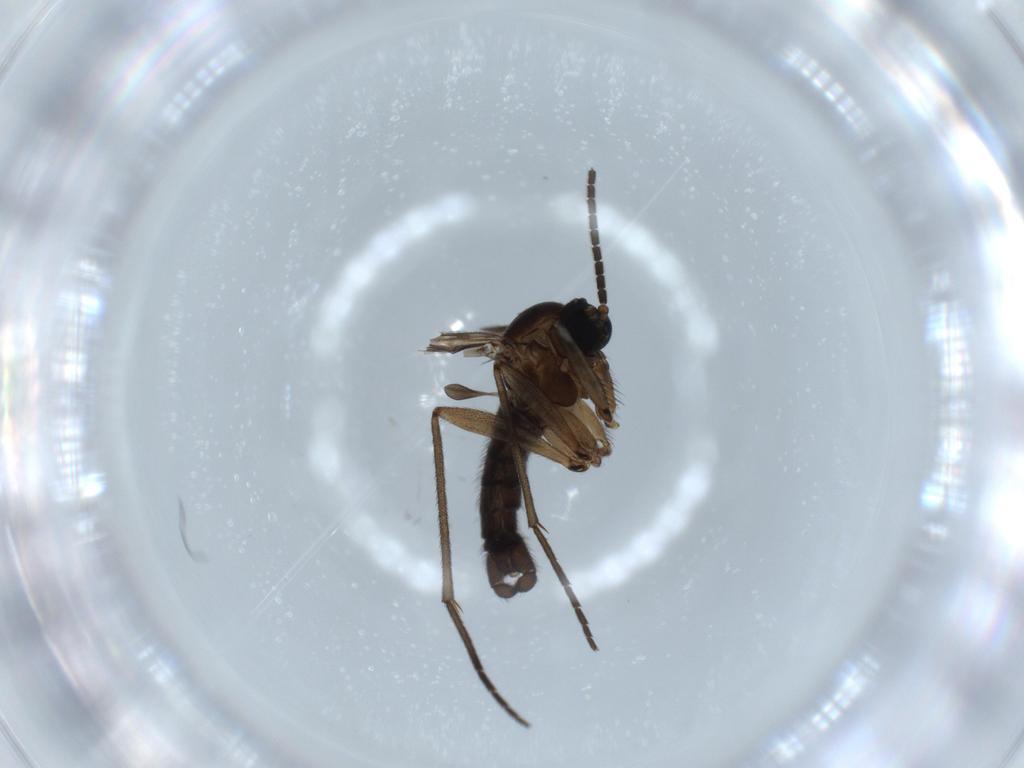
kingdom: Animalia
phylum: Arthropoda
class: Insecta
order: Diptera
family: Sciaridae
